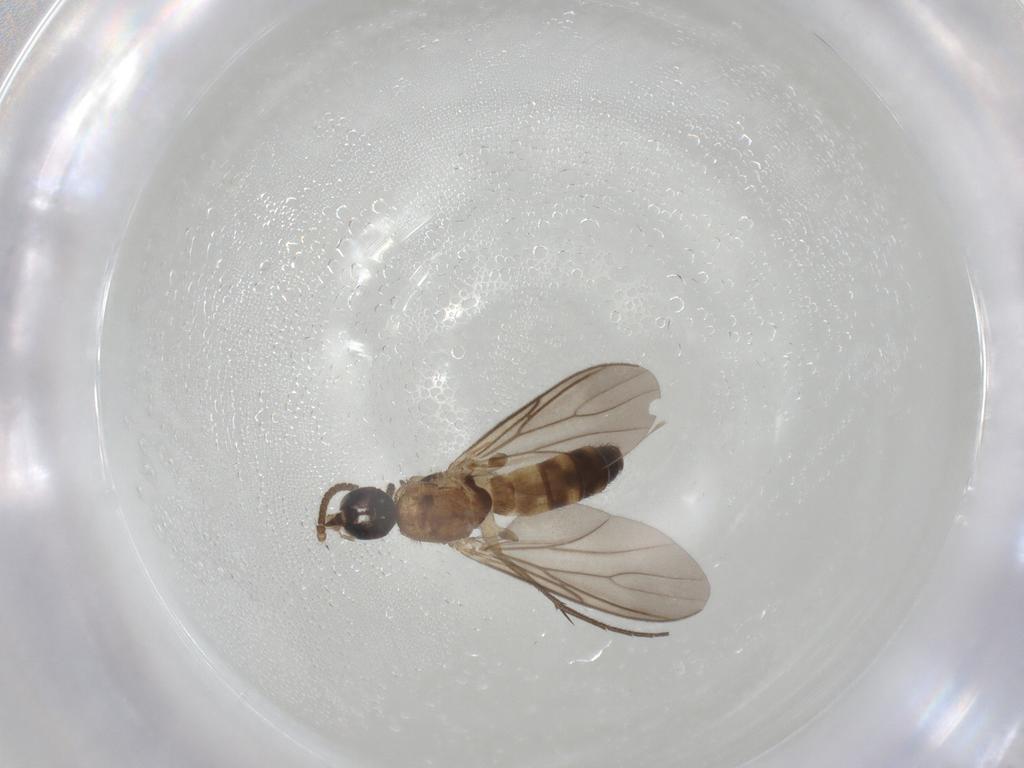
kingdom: Animalia
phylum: Arthropoda
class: Insecta
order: Diptera
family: Mycetophilidae
